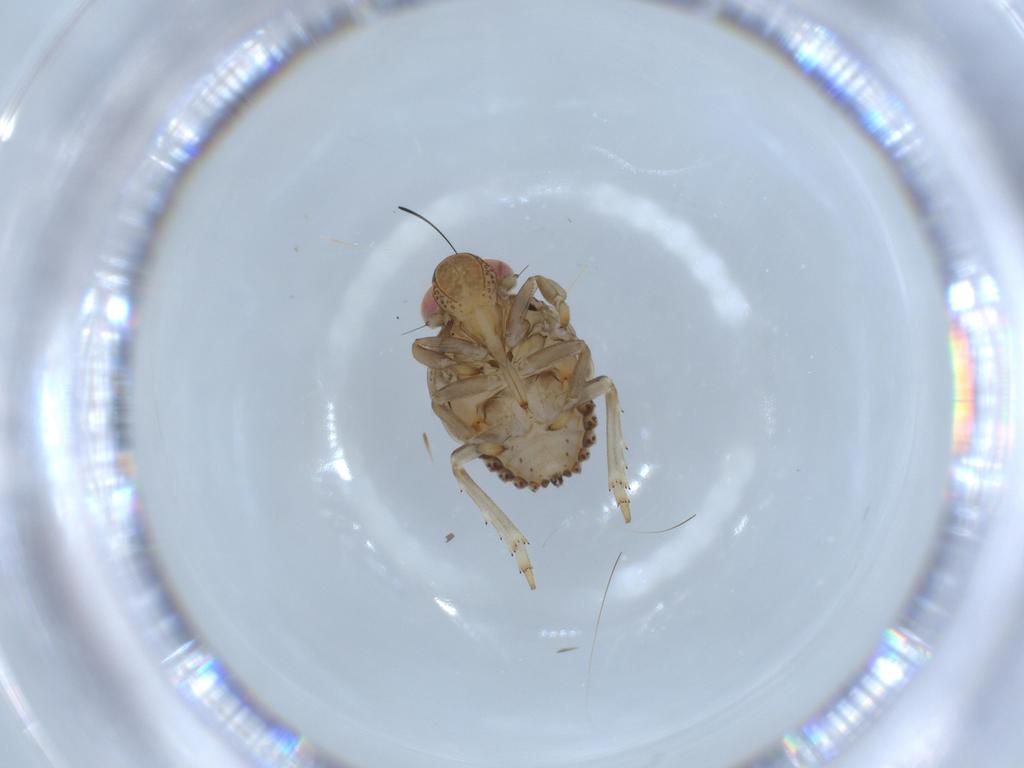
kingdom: Animalia
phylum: Arthropoda
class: Insecta
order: Hemiptera
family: Issidae
